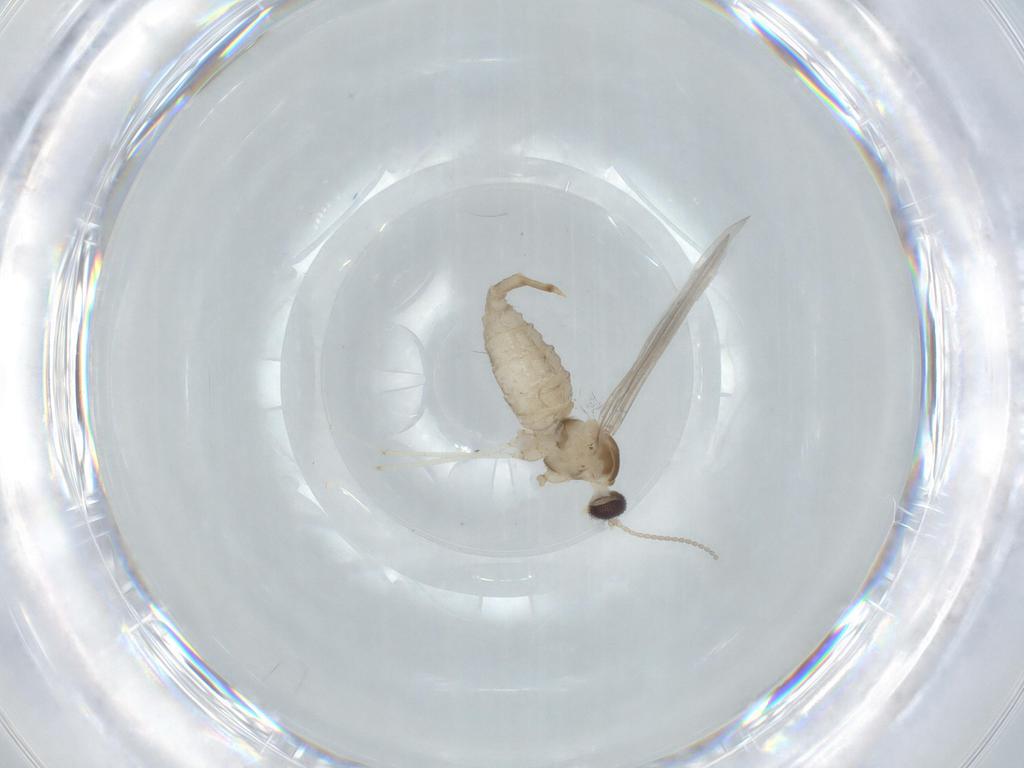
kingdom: Animalia
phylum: Arthropoda
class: Insecta
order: Diptera
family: Cecidomyiidae
